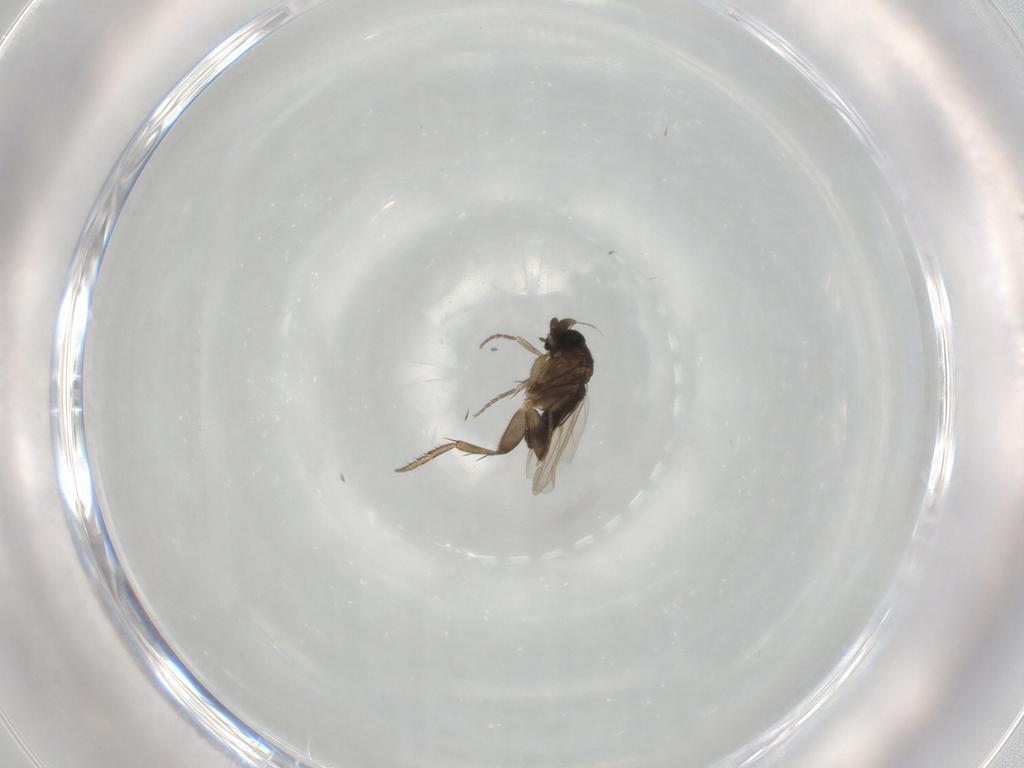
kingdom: Animalia
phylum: Arthropoda
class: Insecta
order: Diptera
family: Phoridae
